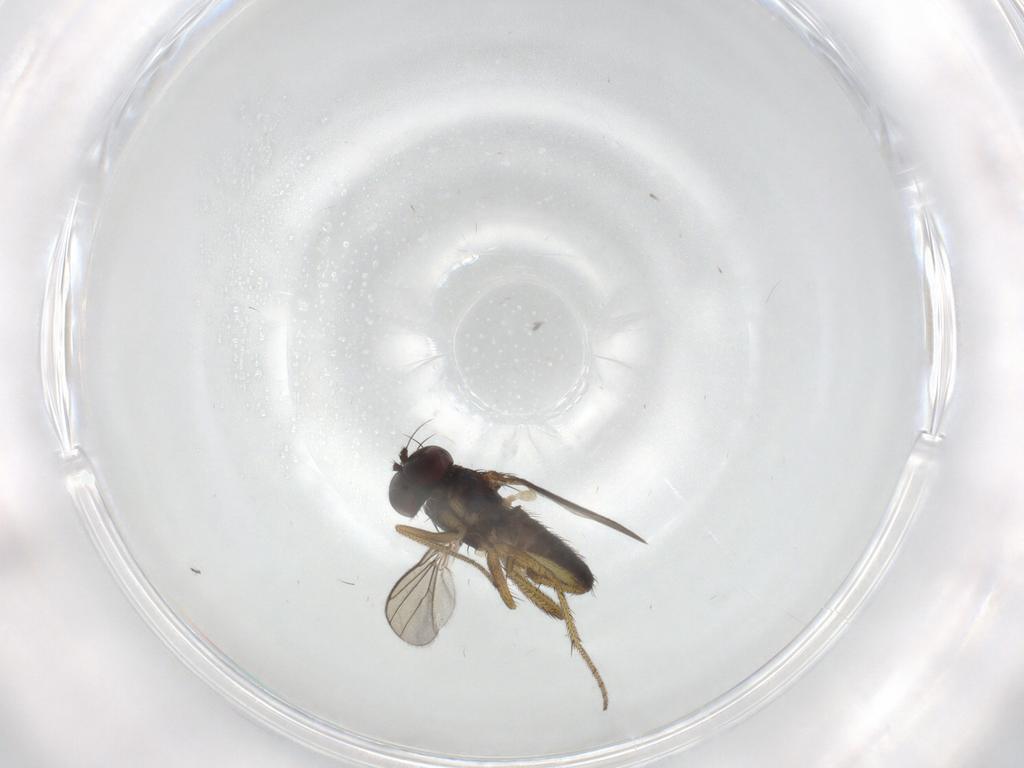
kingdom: Animalia
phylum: Arthropoda
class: Insecta
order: Diptera
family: Dolichopodidae
